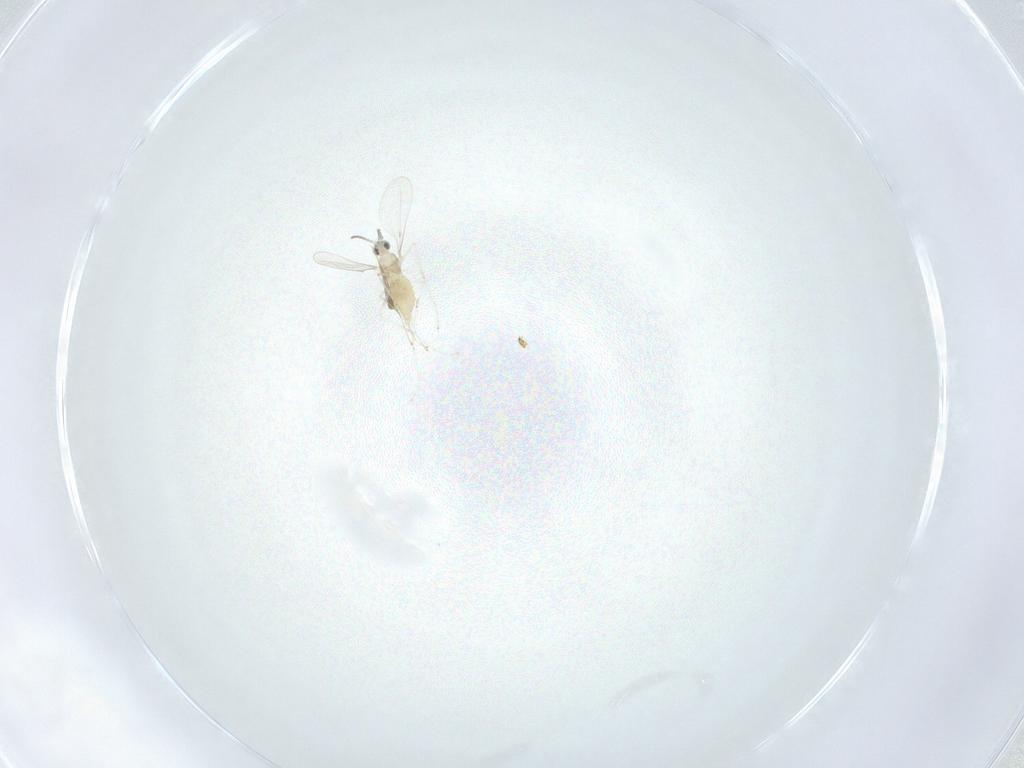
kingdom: Animalia
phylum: Arthropoda
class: Insecta
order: Diptera
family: Cecidomyiidae
